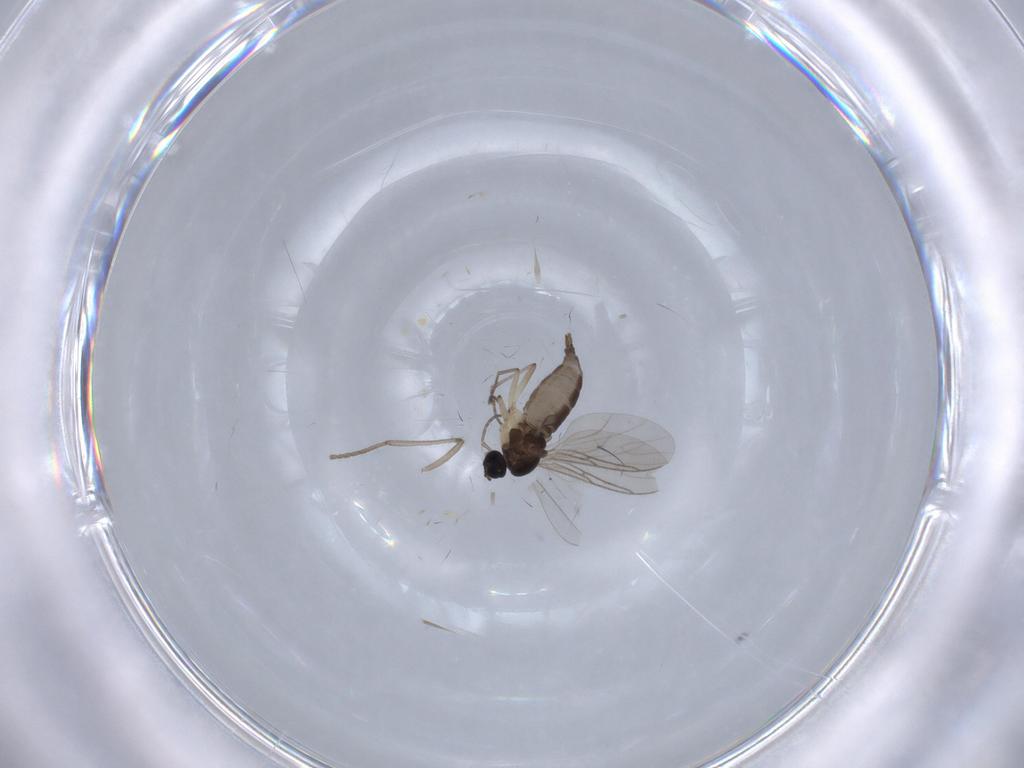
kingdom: Animalia
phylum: Arthropoda
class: Insecta
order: Diptera
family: Sciaridae
